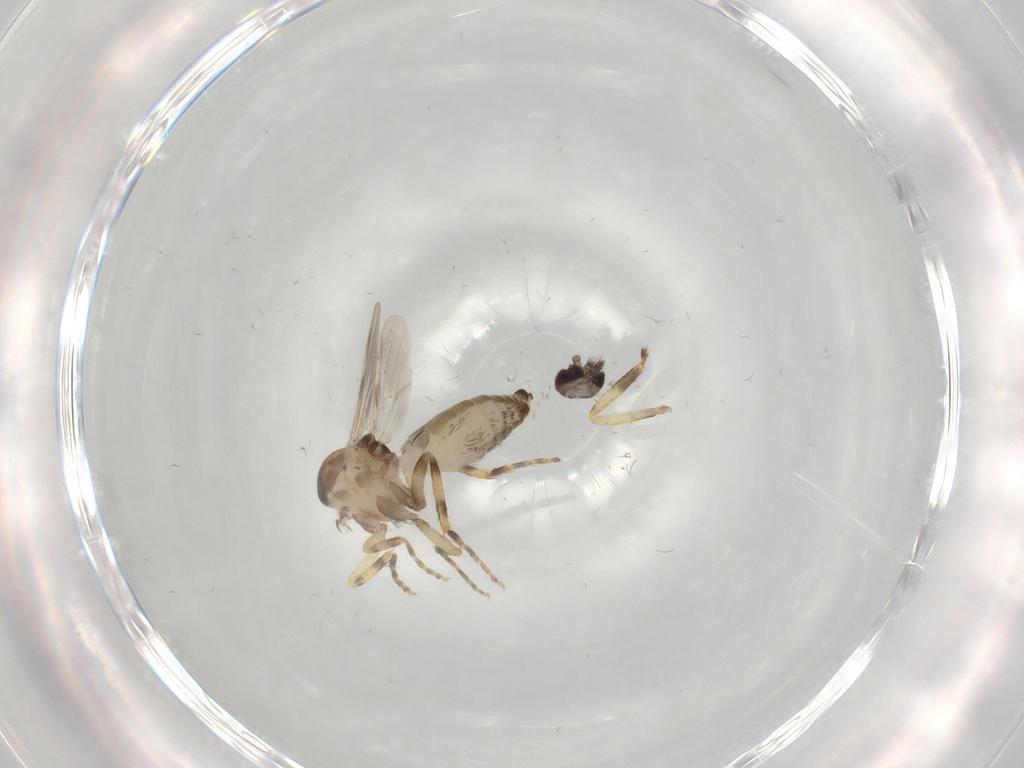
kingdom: Animalia
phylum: Arthropoda
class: Insecta
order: Diptera
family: Ceratopogonidae
